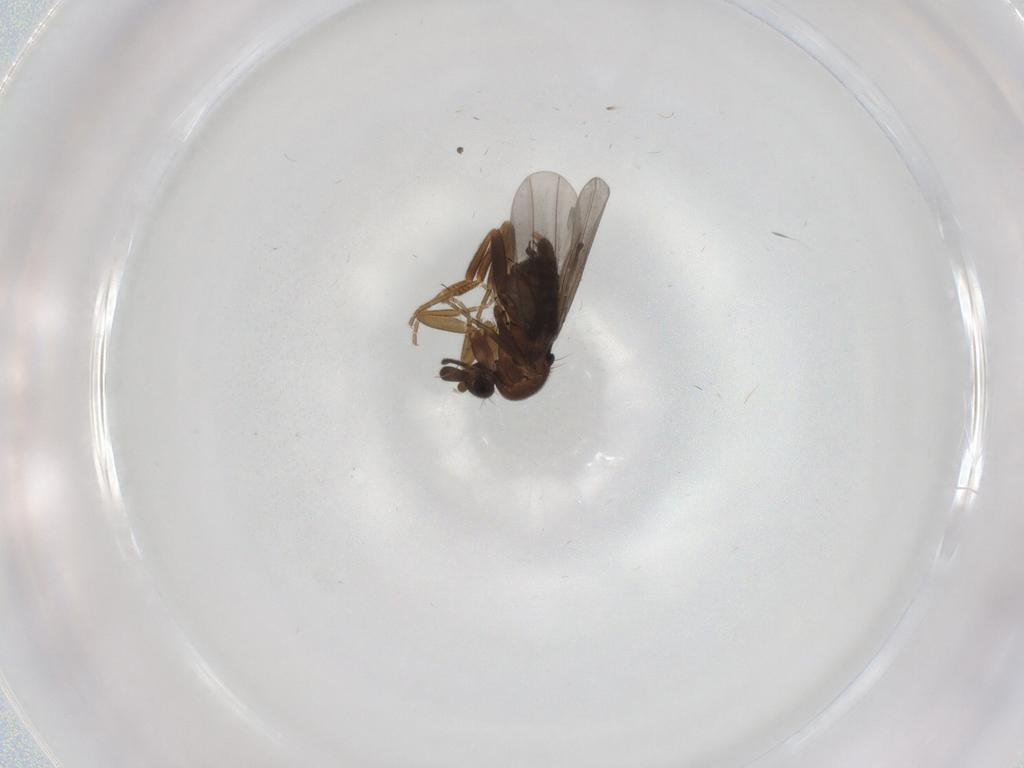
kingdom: Animalia
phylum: Arthropoda
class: Insecta
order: Diptera
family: Phoridae
